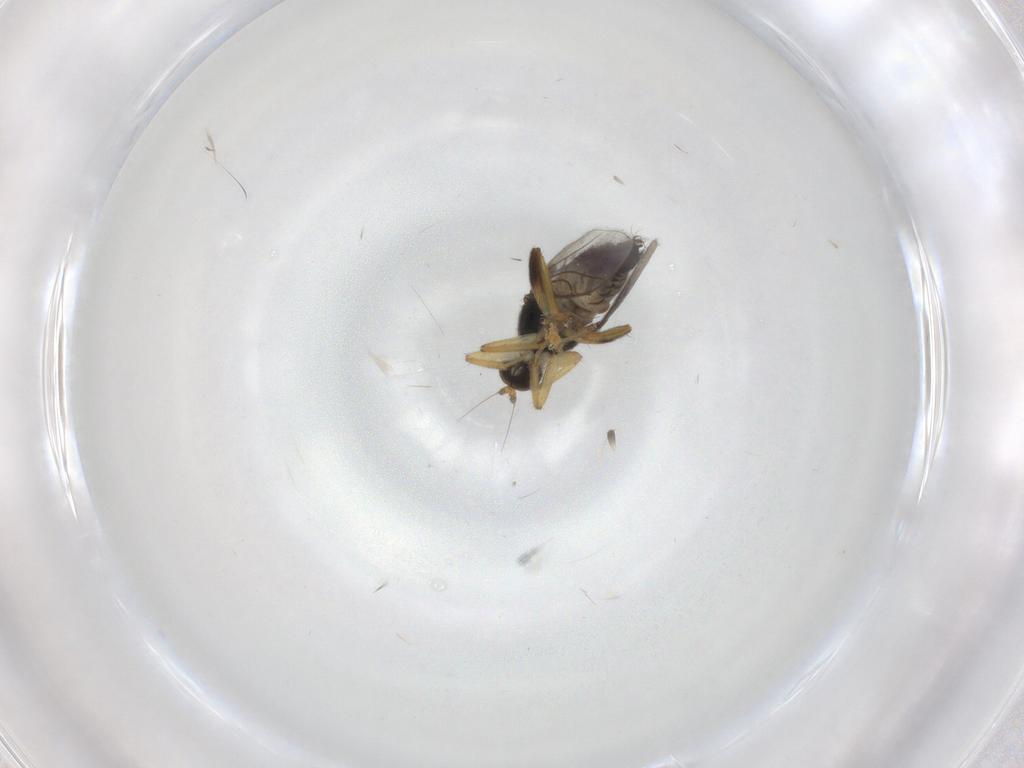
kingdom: Animalia
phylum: Arthropoda
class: Insecta
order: Diptera
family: Hybotidae
